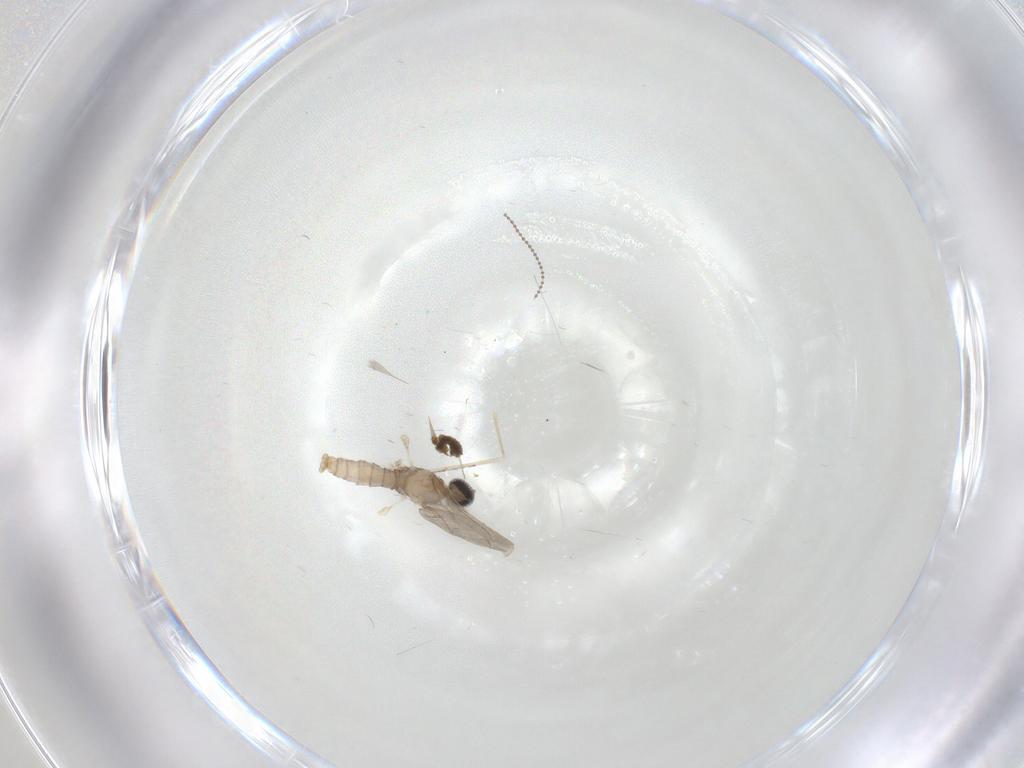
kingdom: Animalia
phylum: Arthropoda
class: Insecta
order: Diptera
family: Cecidomyiidae
